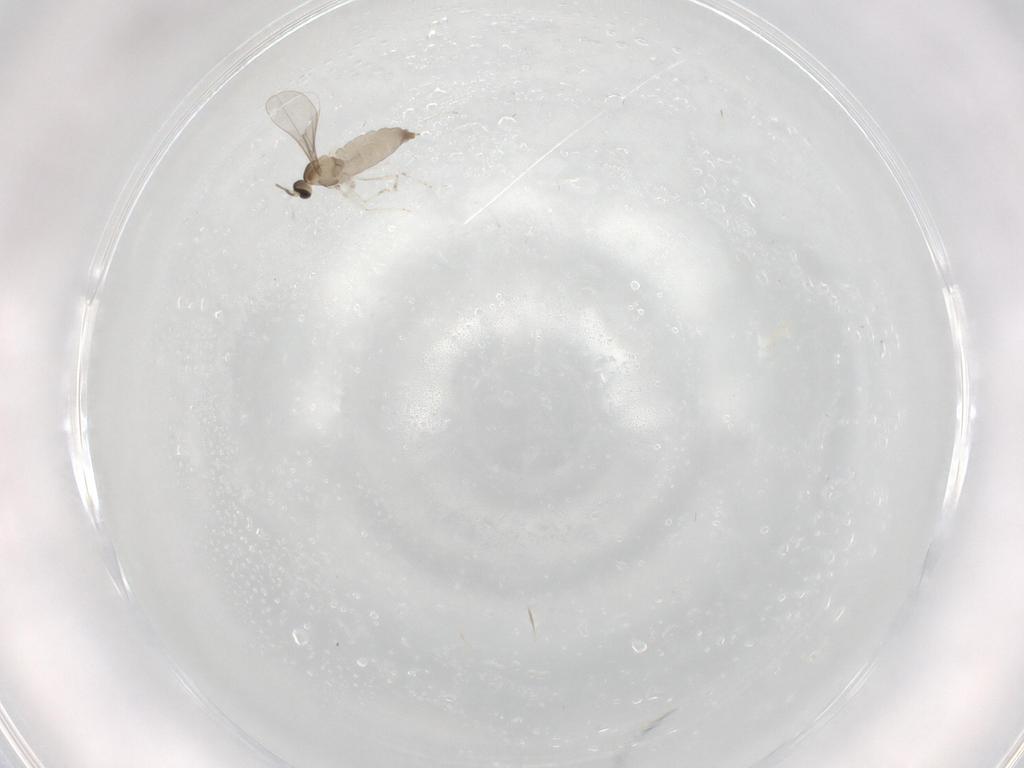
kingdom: Animalia
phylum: Arthropoda
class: Insecta
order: Diptera
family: Cecidomyiidae
